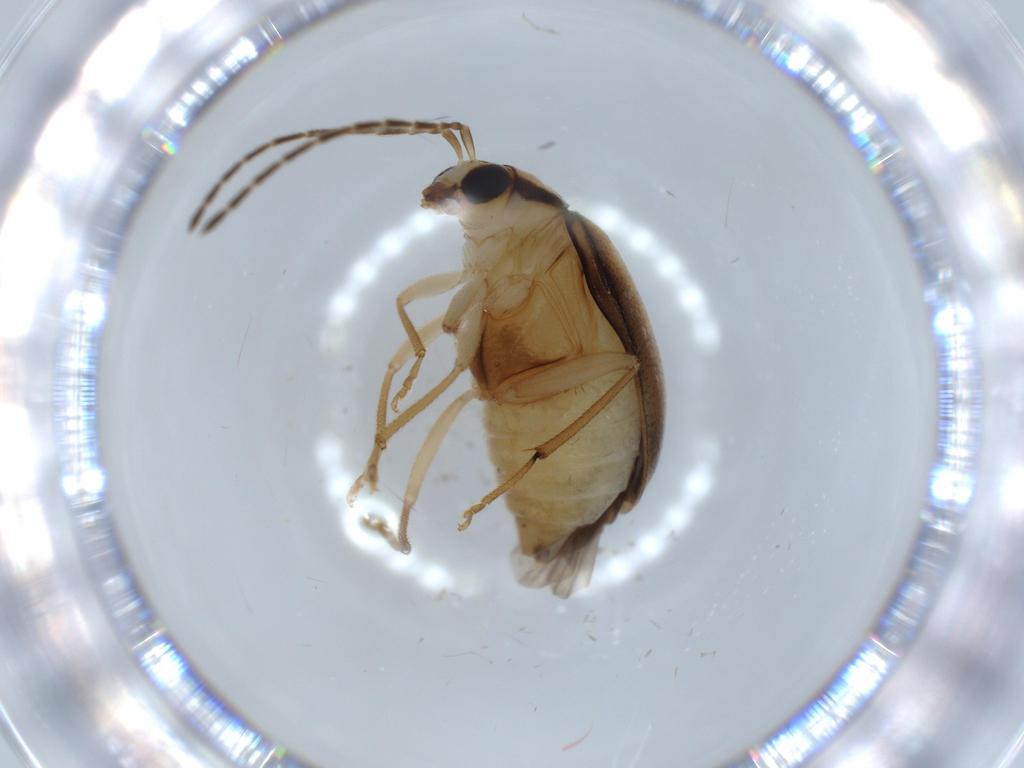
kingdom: Animalia
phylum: Arthropoda
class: Insecta
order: Coleoptera
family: Chrysomelidae
